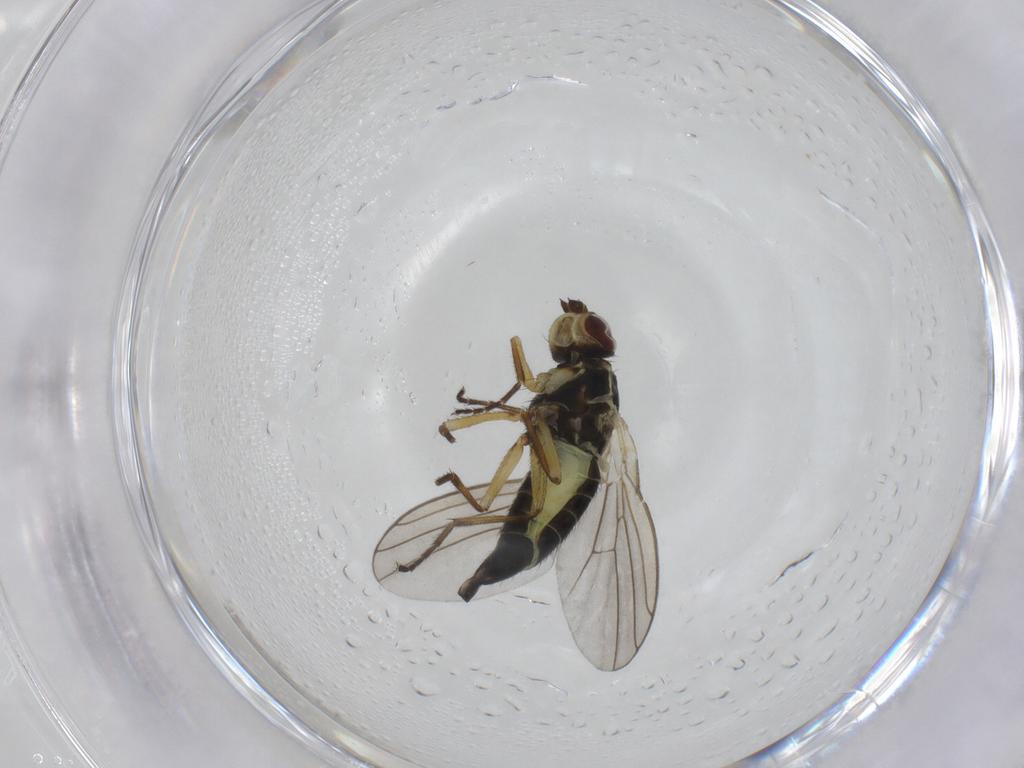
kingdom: Animalia
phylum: Arthropoda
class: Insecta
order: Diptera
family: Agromyzidae
